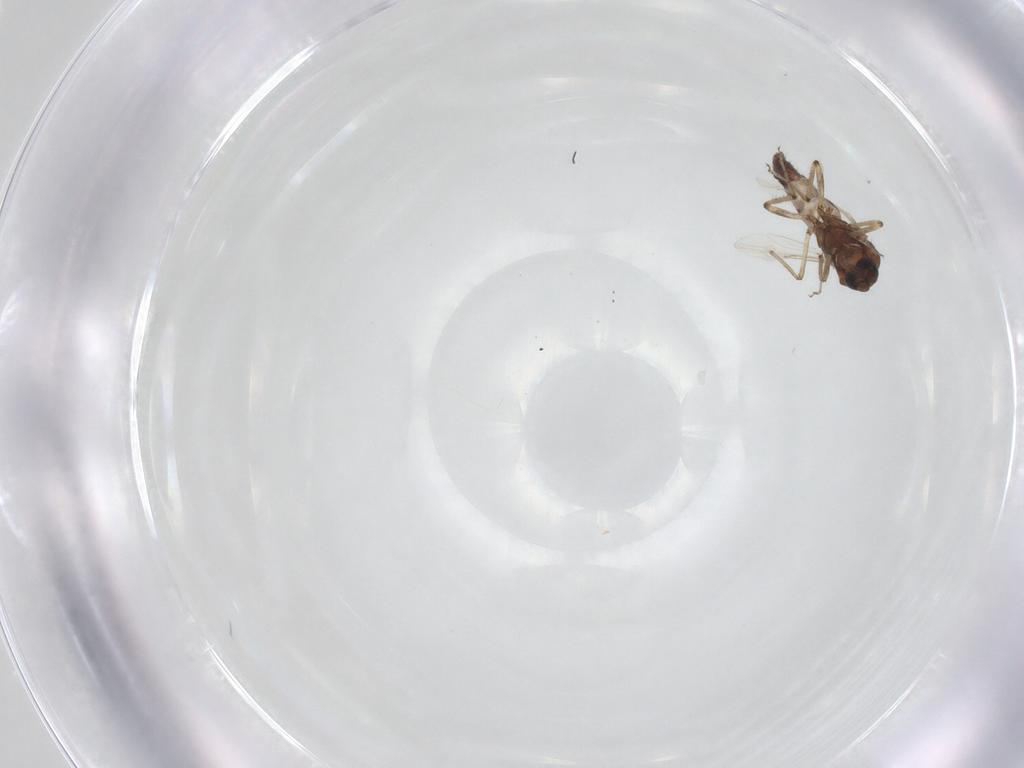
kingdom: Animalia
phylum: Arthropoda
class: Insecta
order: Diptera
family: Ceratopogonidae
